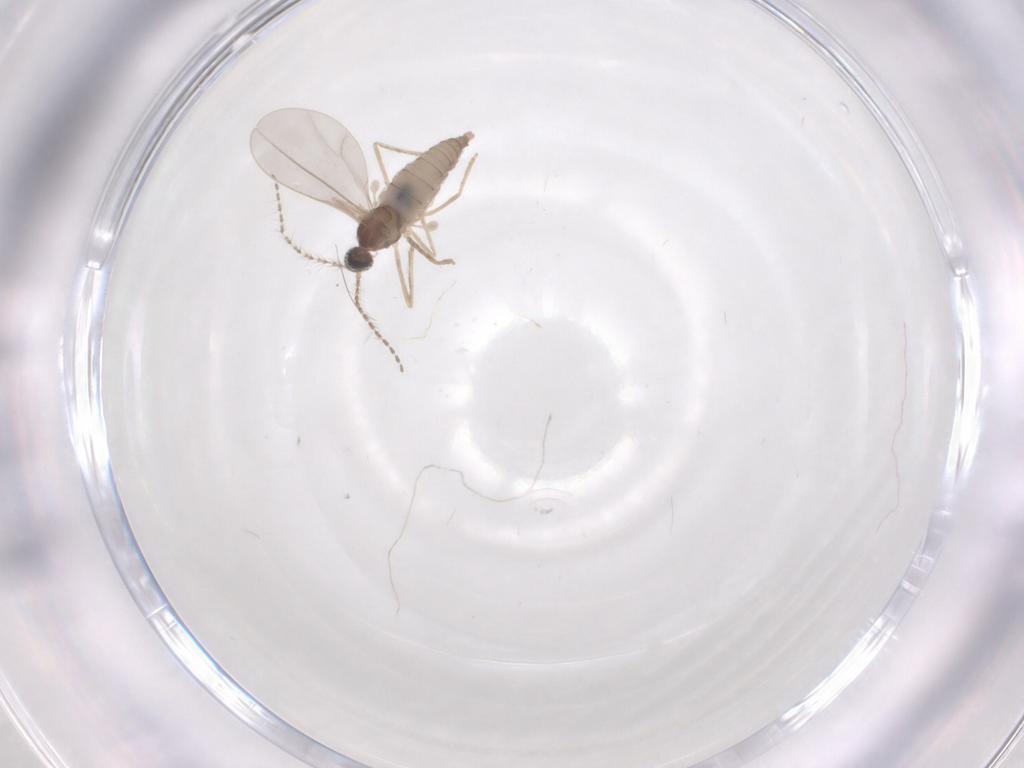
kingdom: Animalia
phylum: Arthropoda
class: Insecta
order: Diptera
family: Cecidomyiidae
